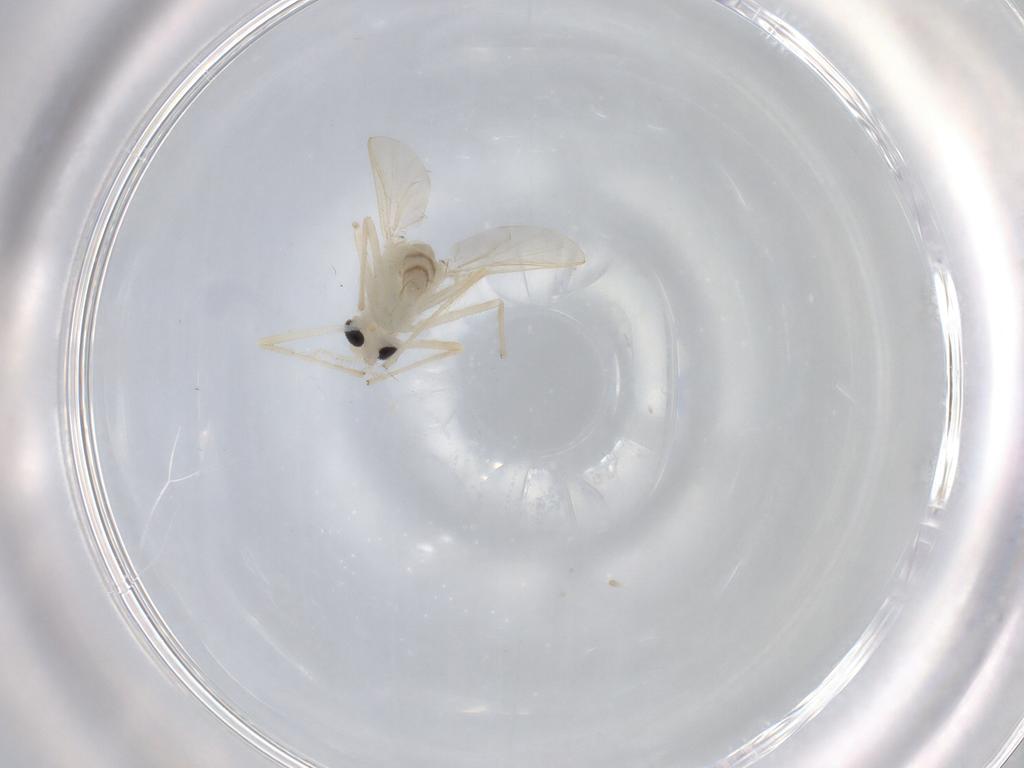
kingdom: Animalia
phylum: Arthropoda
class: Insecta
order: Diptera
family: Chironomidae
